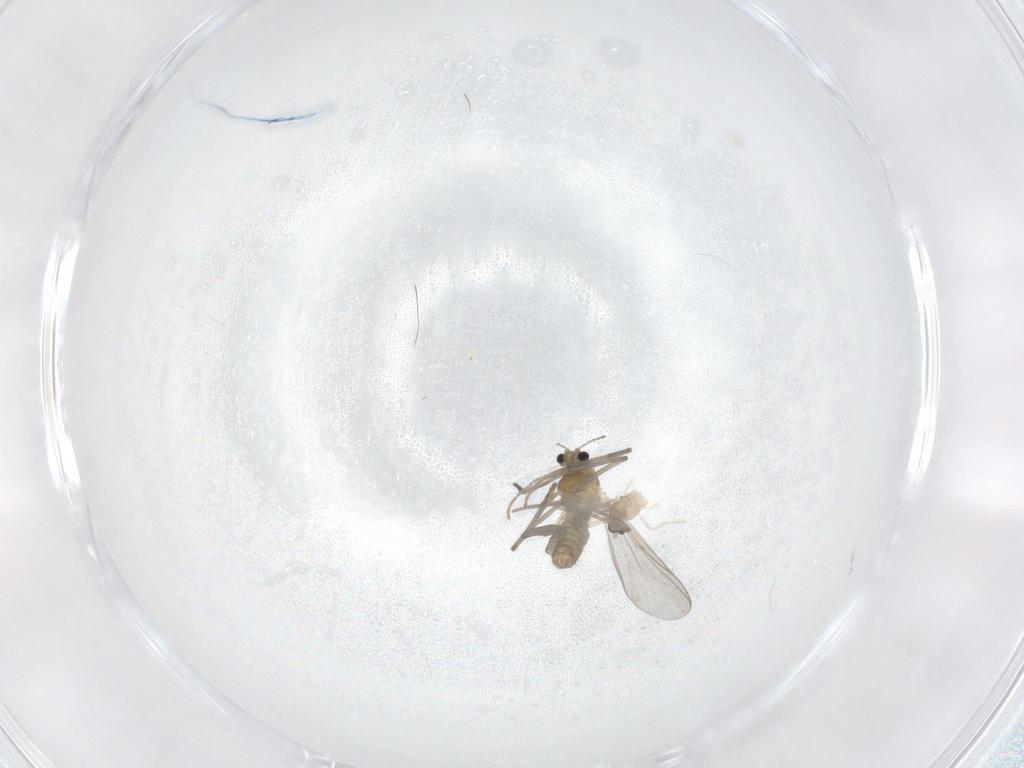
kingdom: Animalia
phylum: Arthropoda
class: Insecta
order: Diptera
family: Chironomidae
